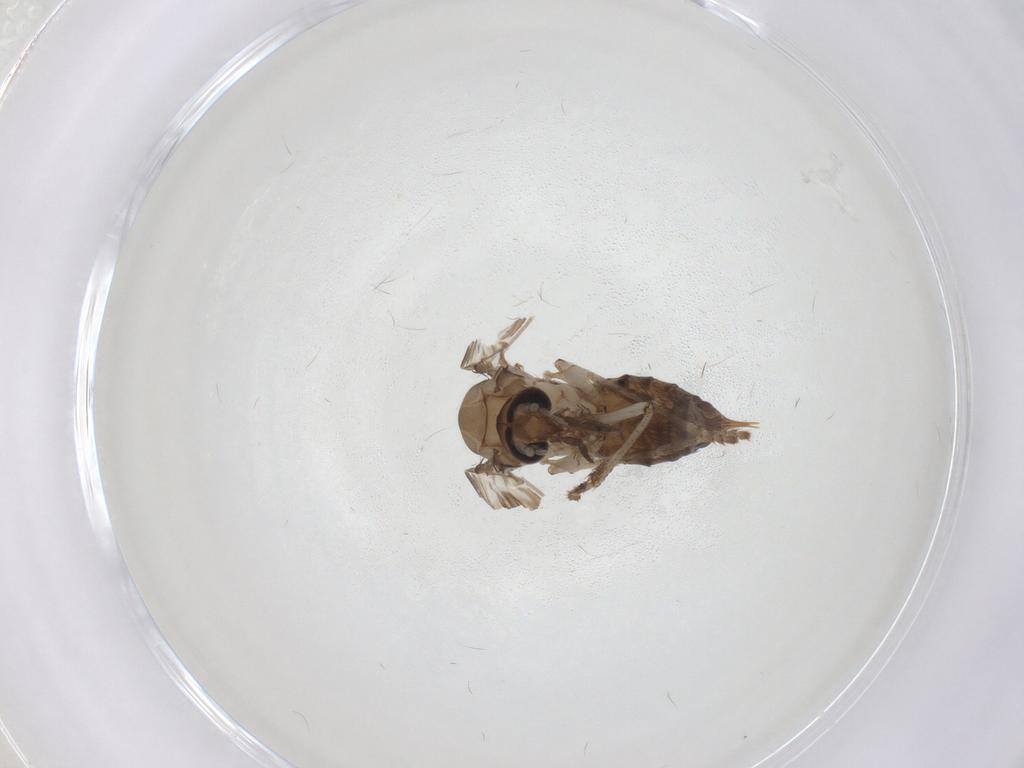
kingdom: Animalia
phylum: Arthropoda
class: Insecta
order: Diptera
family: Psychodidae
